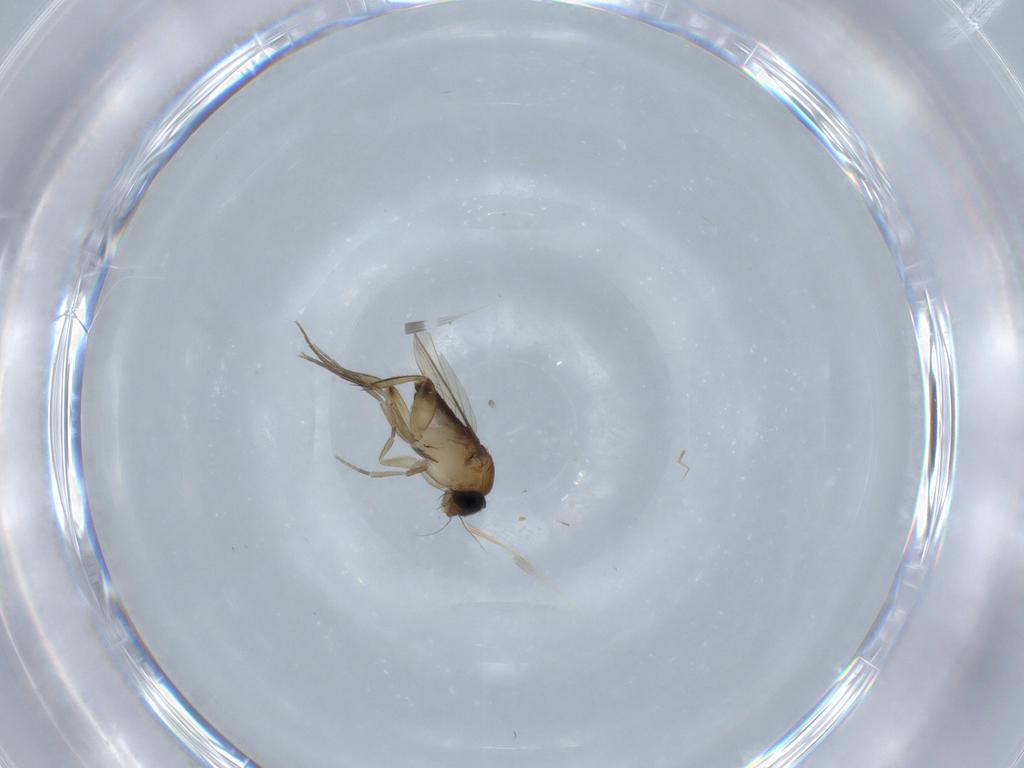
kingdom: Animalia
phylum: Arthropoda
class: Insecta
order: Diptera
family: Phoridae
